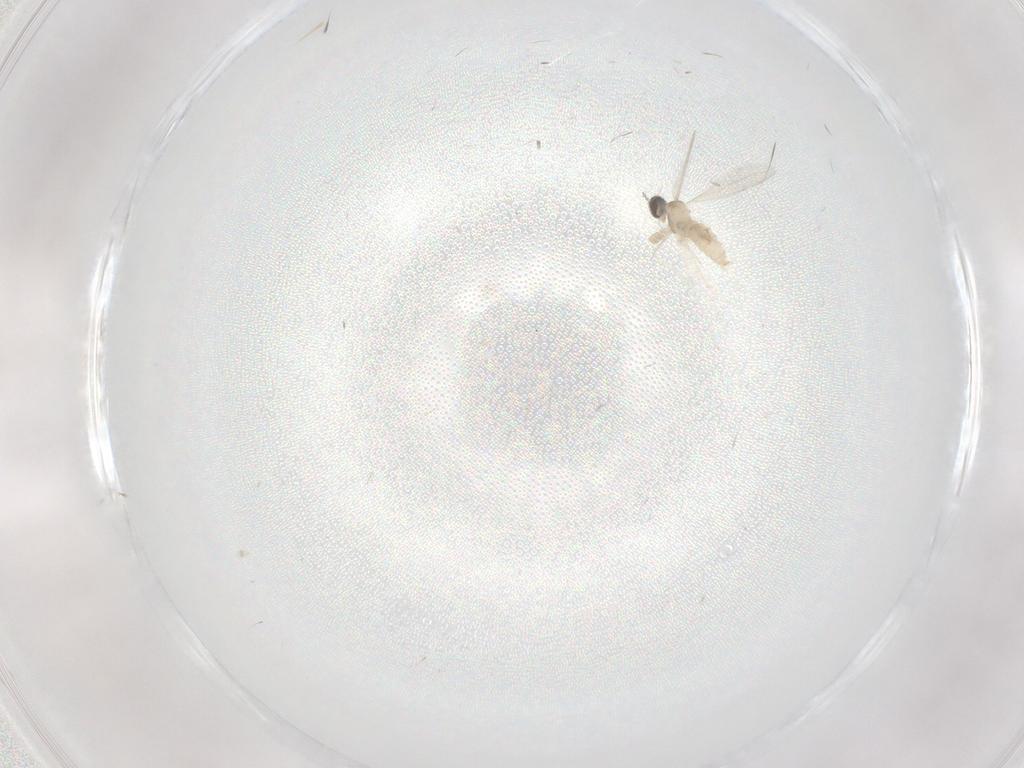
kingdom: Animalia
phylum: Arthropoda
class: Insecta
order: Diptera
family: Cecidomyiidae
